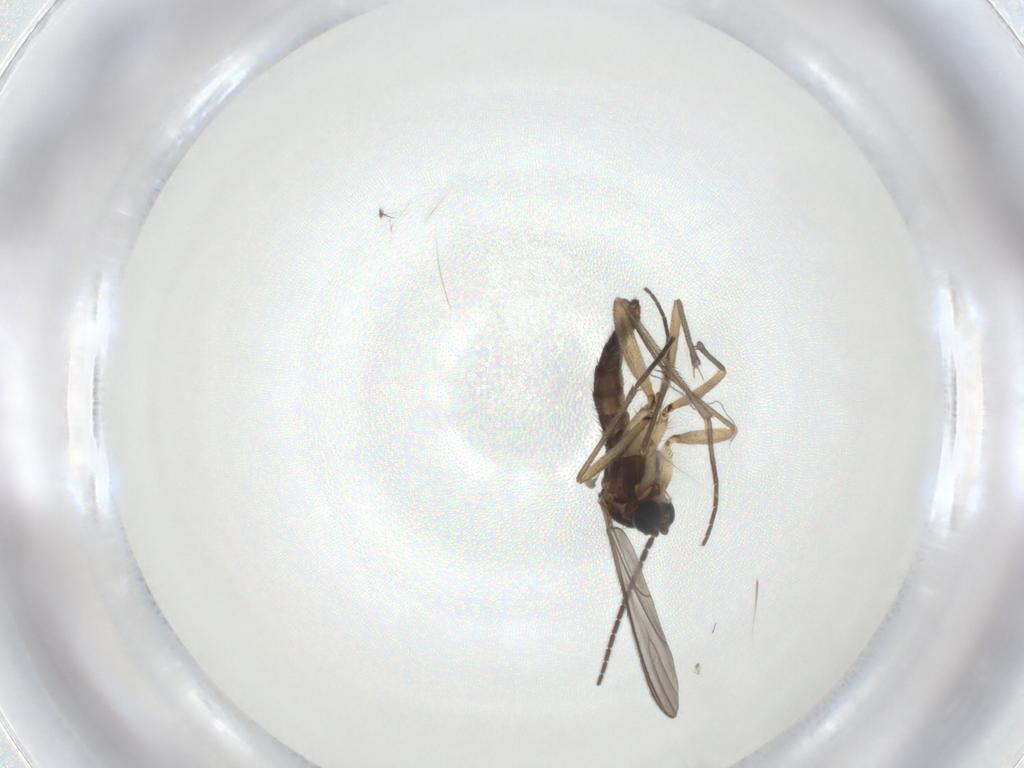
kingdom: Animalia
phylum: Arthropoda
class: Insecta
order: Diptera
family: Sciaridae
